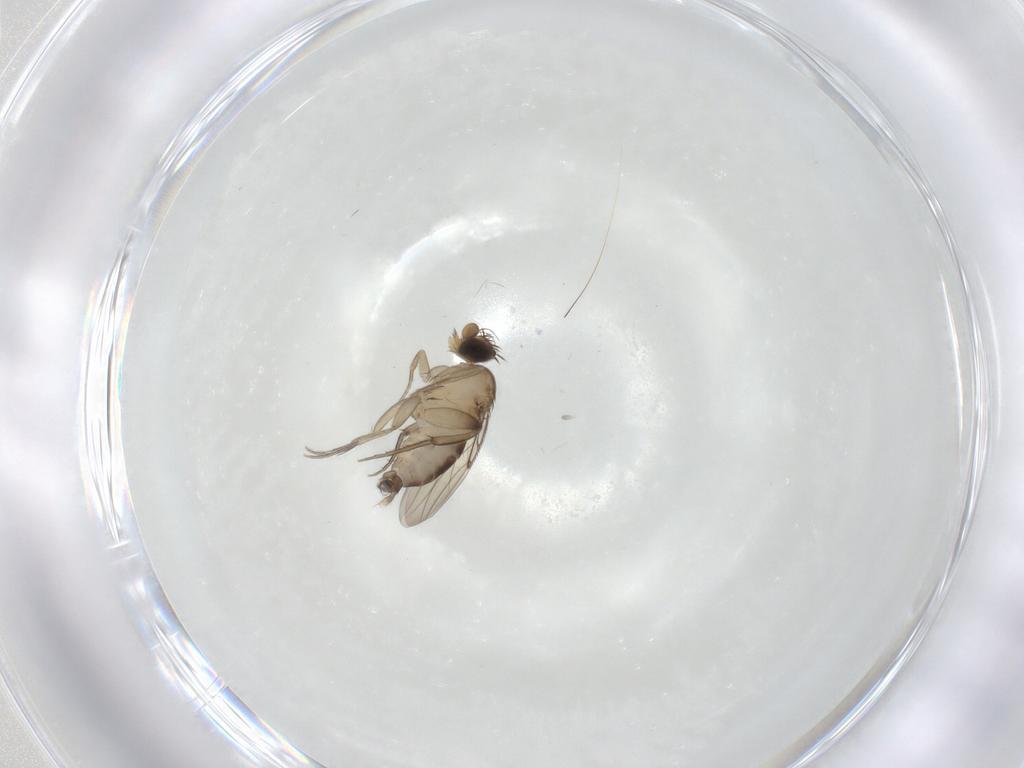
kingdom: Animalia
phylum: Arthropoda
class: Insecta
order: Diptera
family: Phoridae
